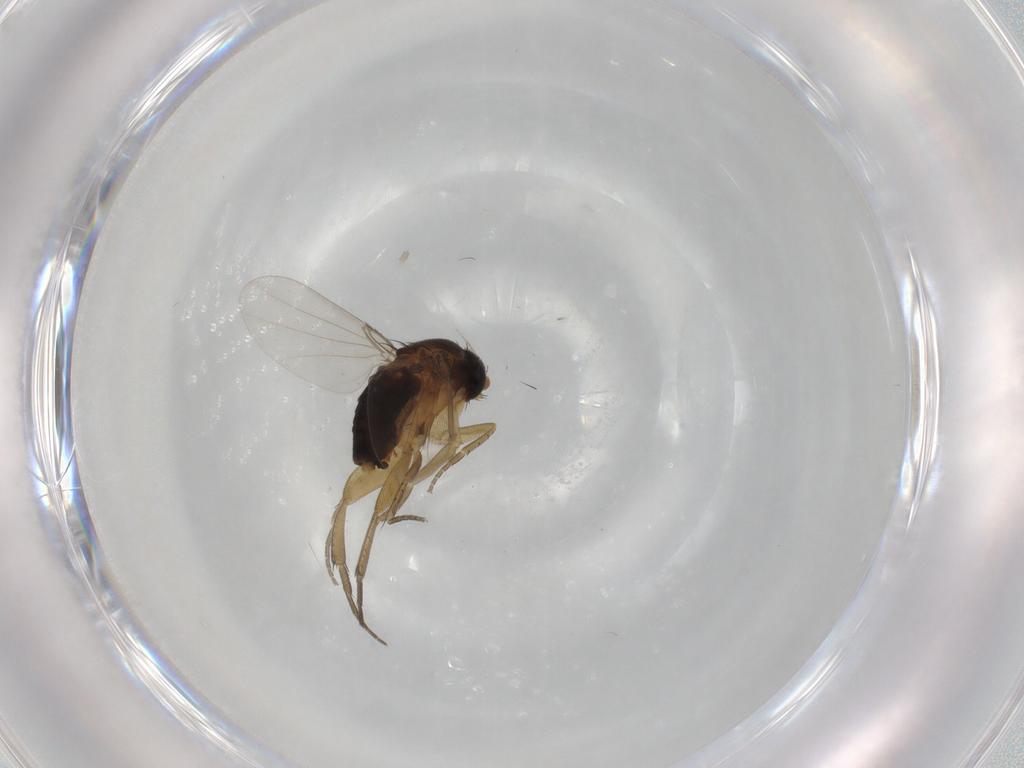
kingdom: Animalia
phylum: Arthropoda
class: Insecta
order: Diptera
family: Phoridae
